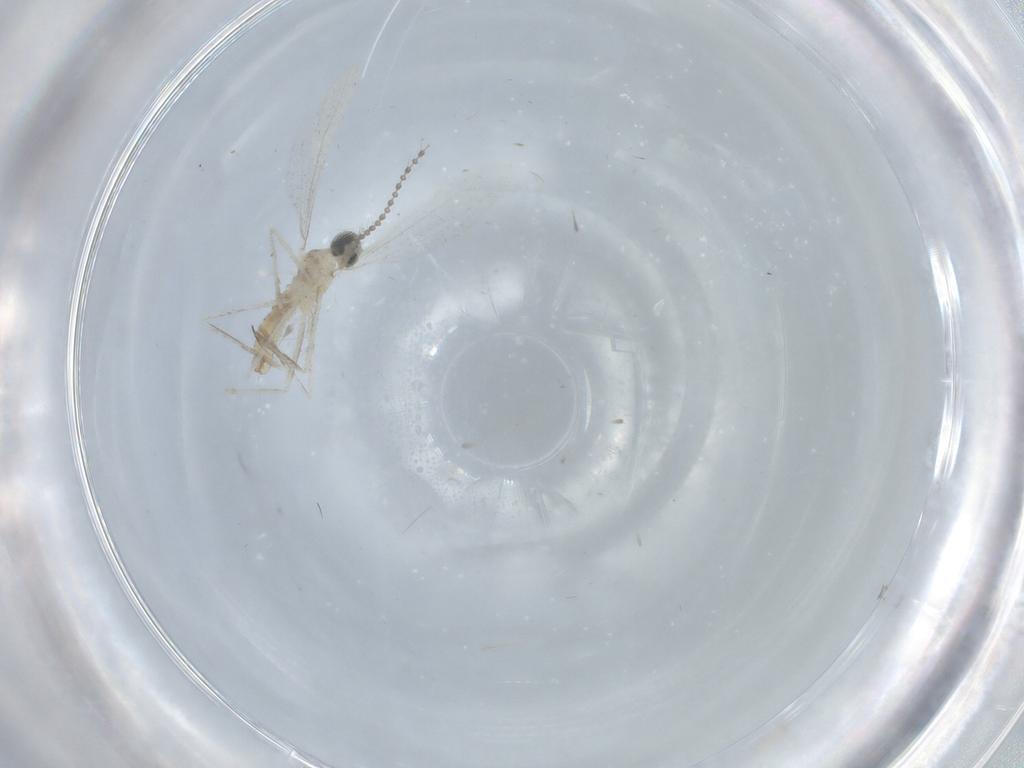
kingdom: Animalia
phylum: Arthropoda
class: Insecta
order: Diptera
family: Cecidomyiidae
